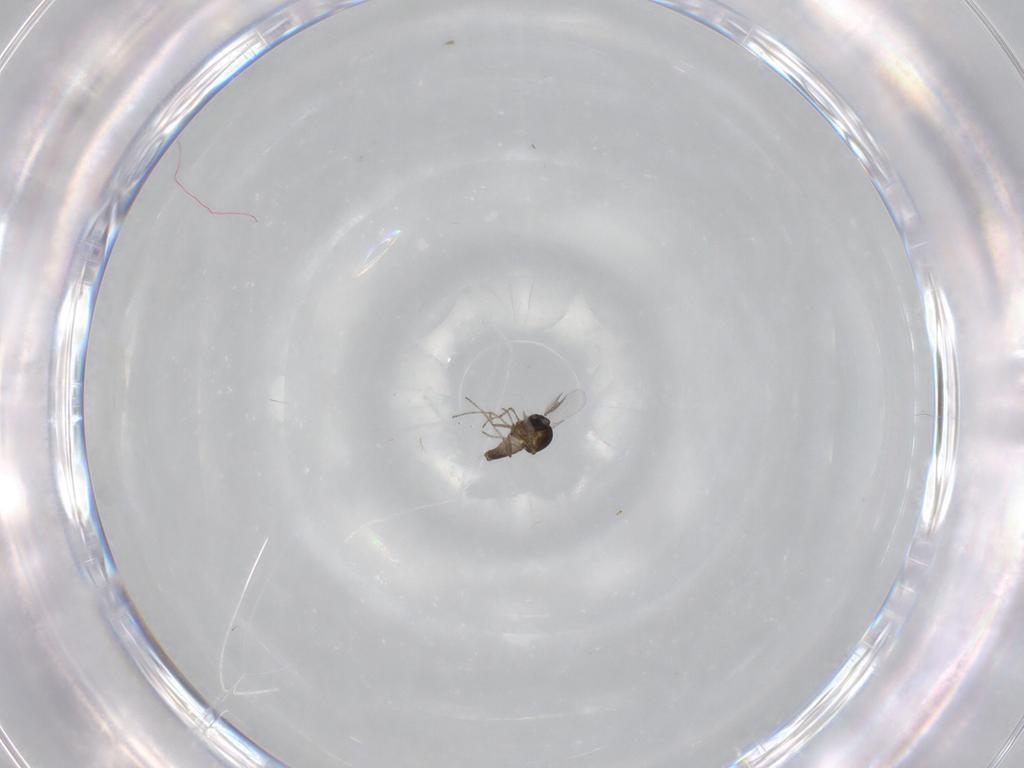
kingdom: Animalia
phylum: Arthropoda
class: Insecta
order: Diptera
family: Ceratopogonidae
